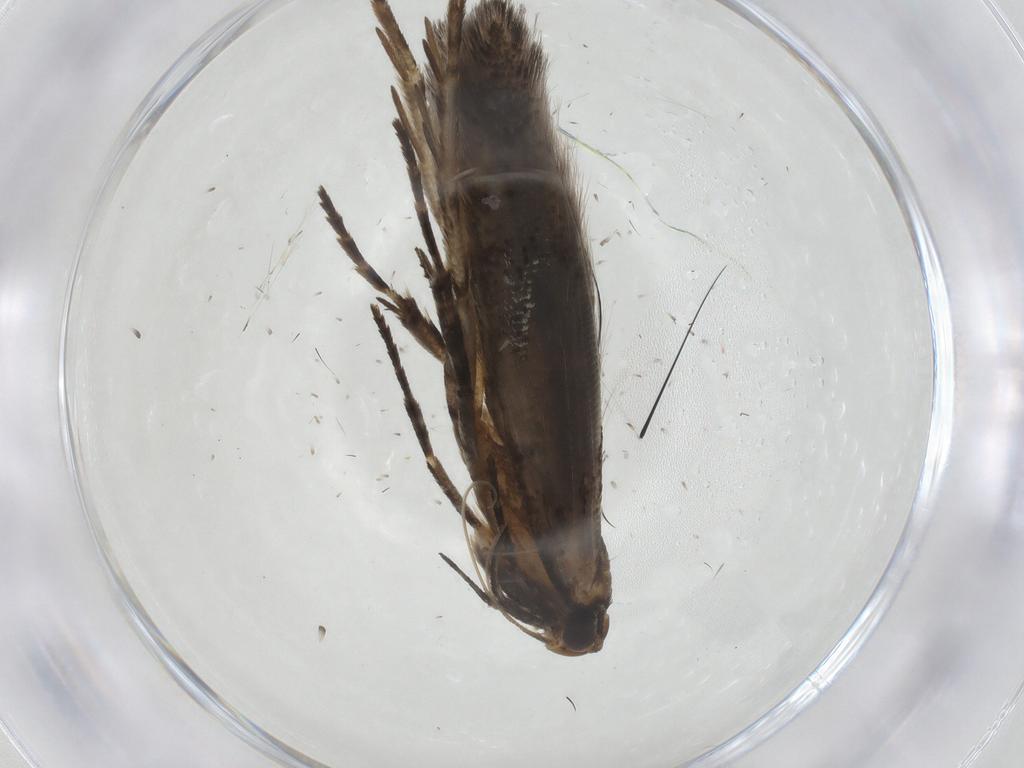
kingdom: Animalia
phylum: Arthropoda
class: Insecta
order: Lepidoptera
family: Gelechiidae
